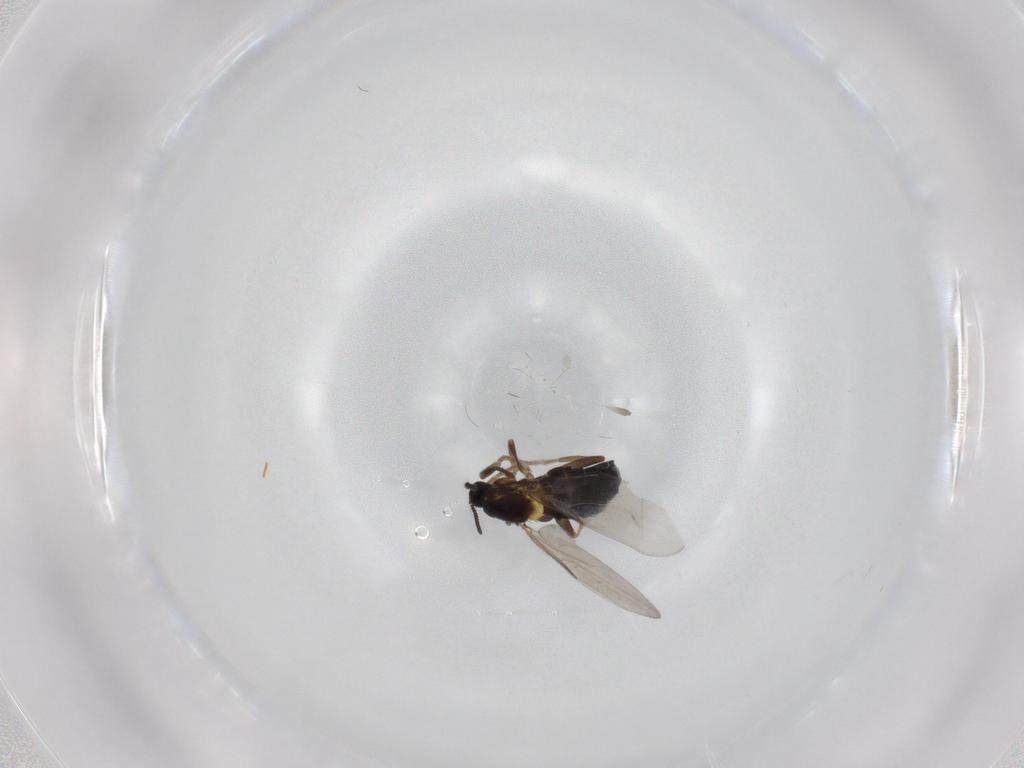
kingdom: Animalia
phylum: Arthropoda
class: Insecta
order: Diptera
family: Scatopsidae
